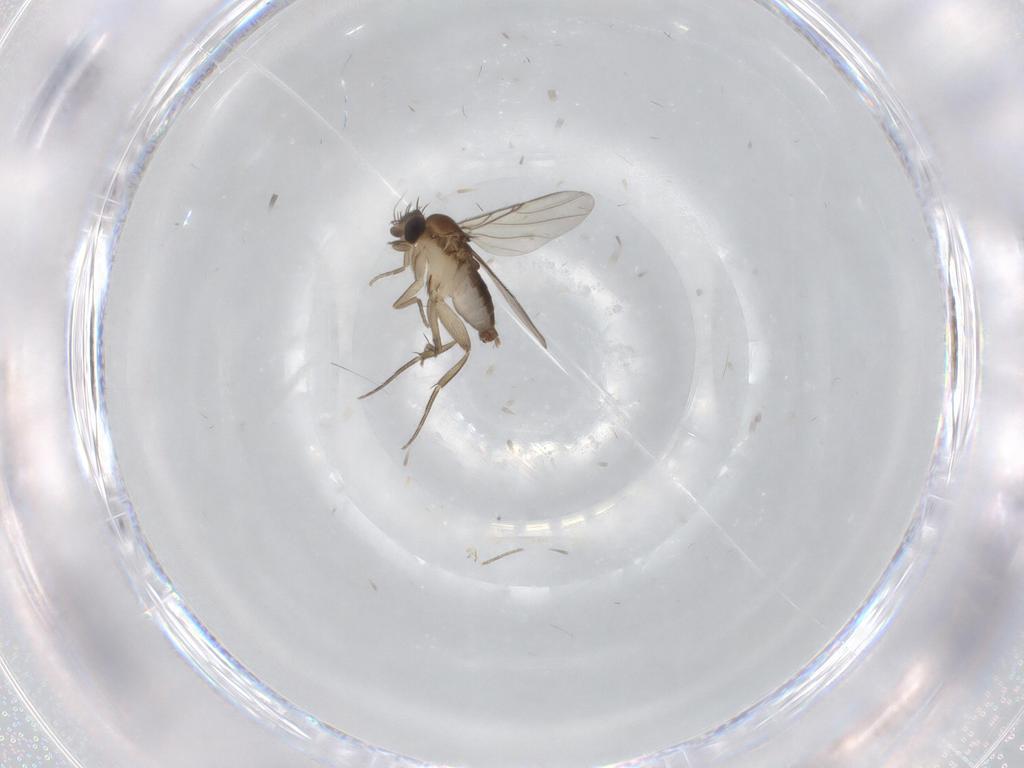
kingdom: Animalia
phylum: Arthropoda
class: Insecta
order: Diptera
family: Phoridae
